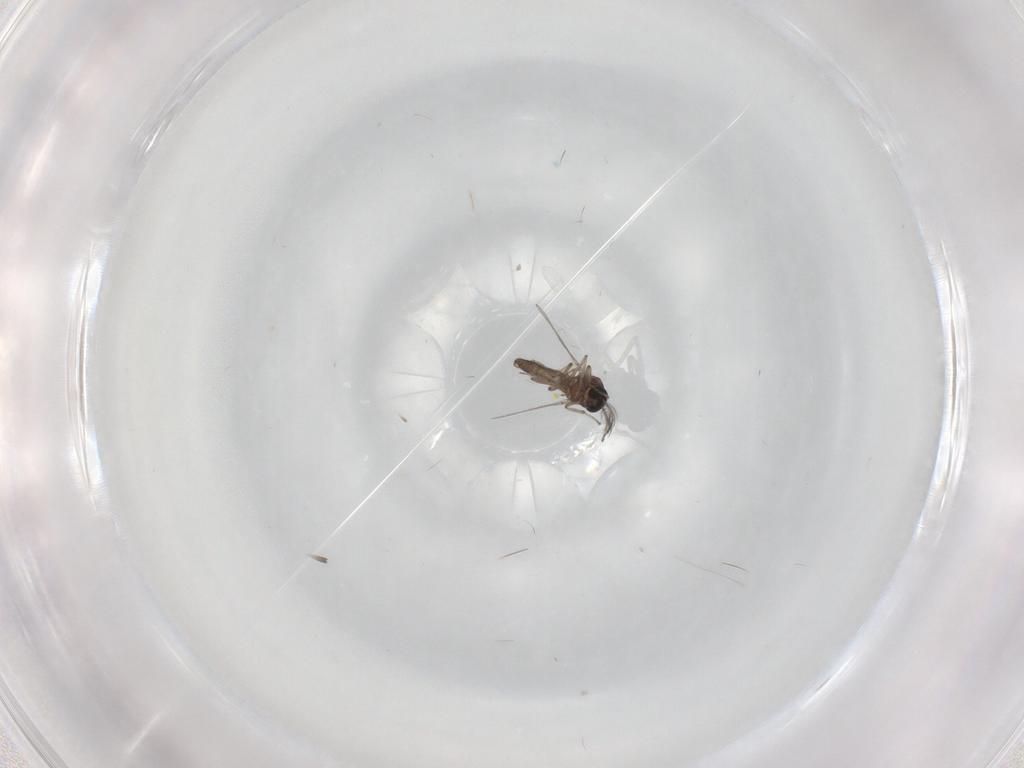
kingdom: Animalia
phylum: Arthropoda
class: Insecta
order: Diptera
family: Ceratopogonidae
